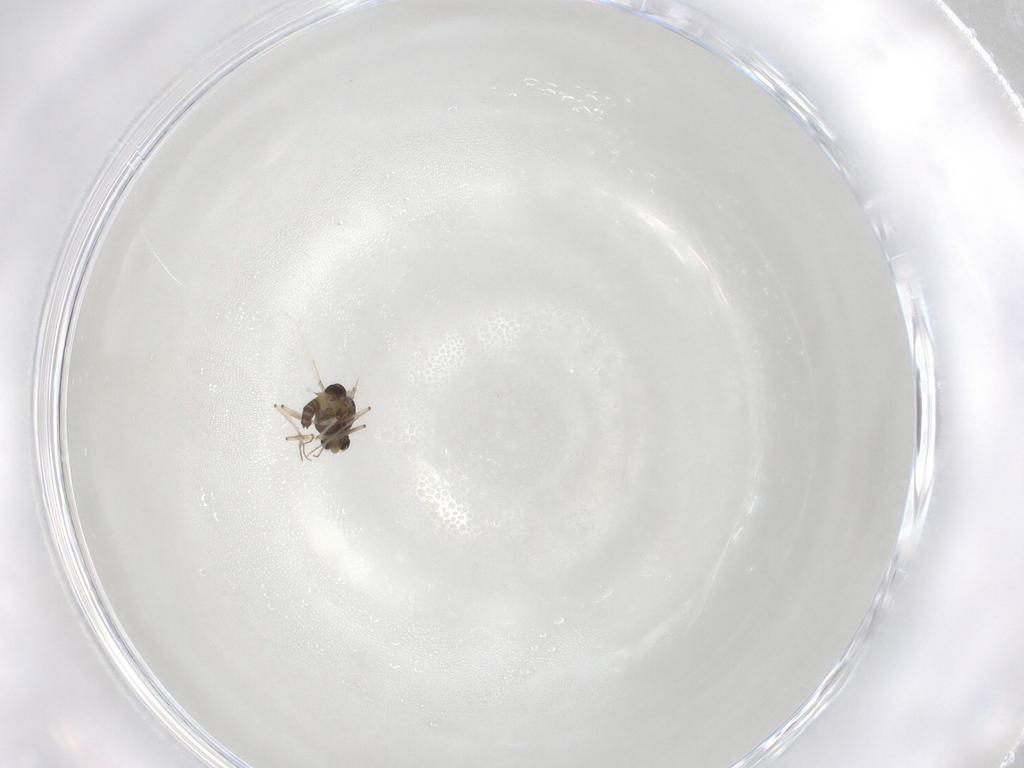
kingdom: Animalia
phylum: Arthropoda
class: Insecta
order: Diptera
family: Chironomidae
